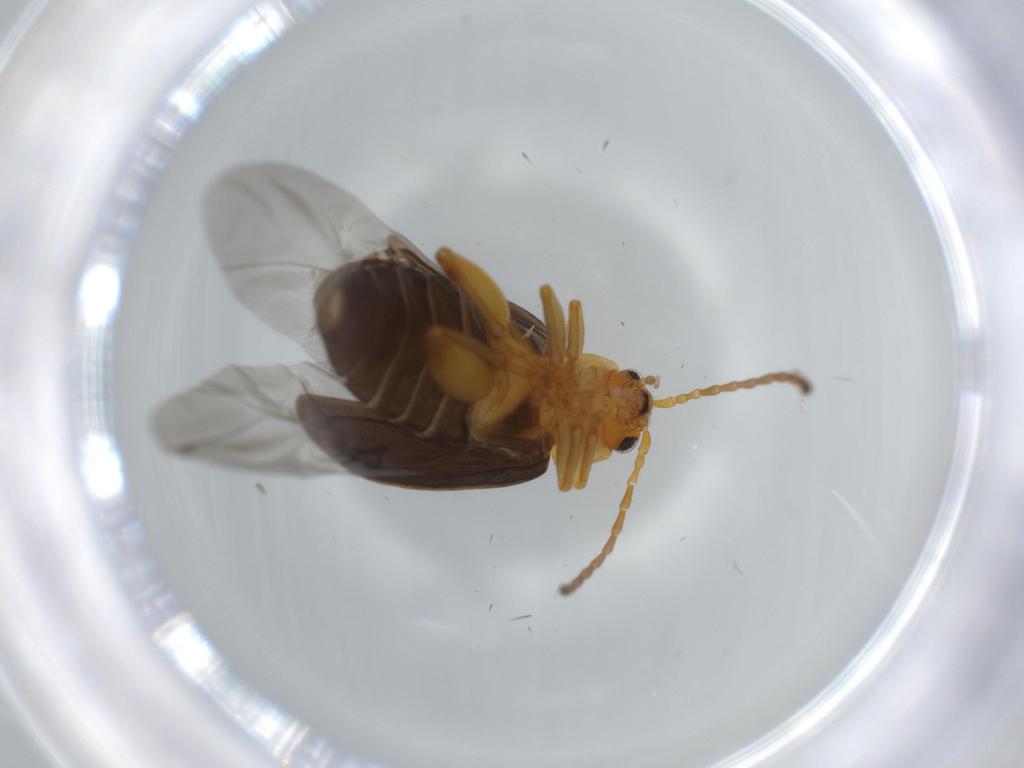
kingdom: Animalia
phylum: Arthropoda
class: Insecta
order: Coleoptera
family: Chrysomelidae
